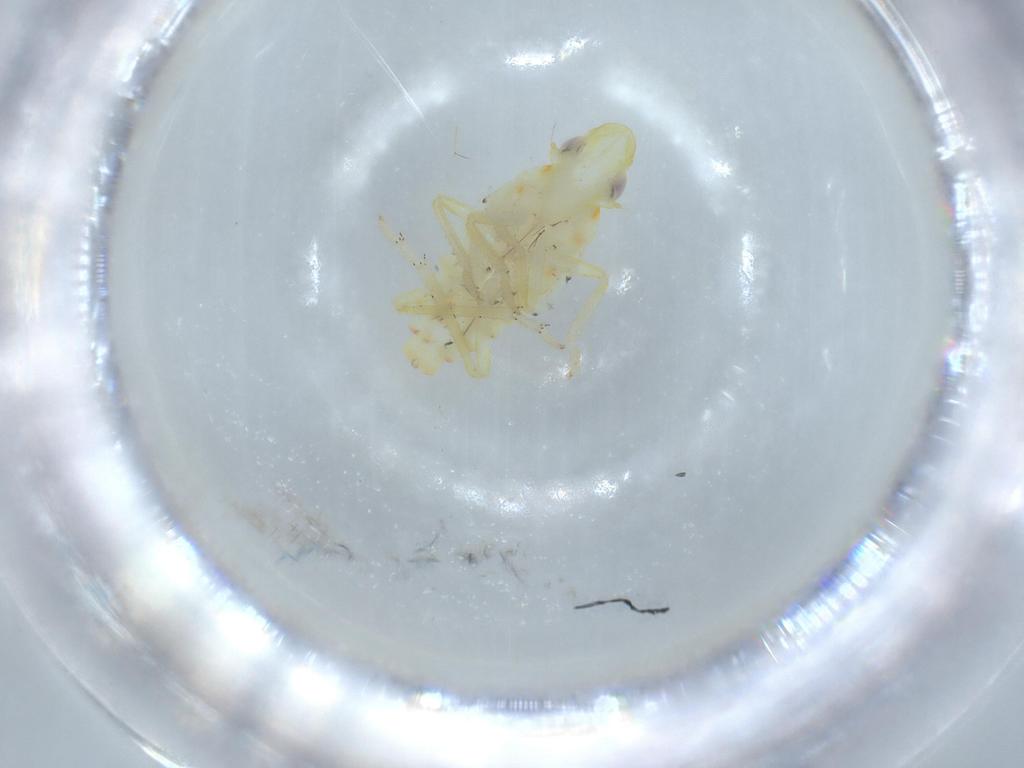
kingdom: Animalia
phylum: Arthropoda
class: Insecta
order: Hemiptera
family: Tropiduchidae
